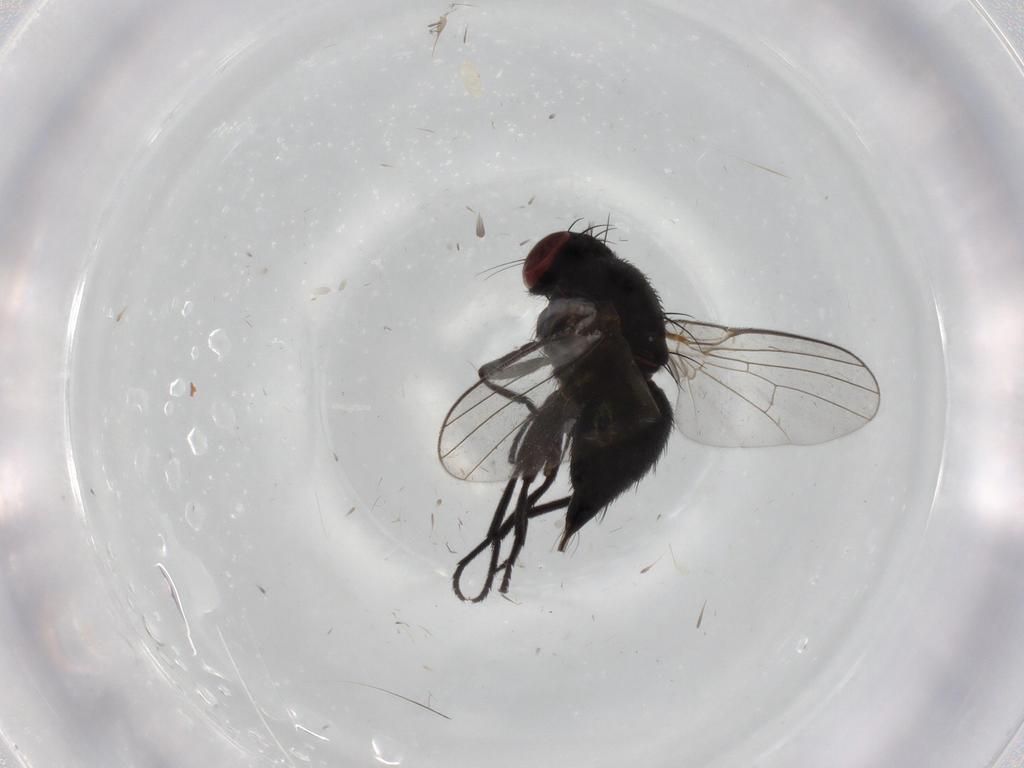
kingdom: Animalia
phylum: Arthropoda
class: Insecta
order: Diptera
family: Agromyzidae
